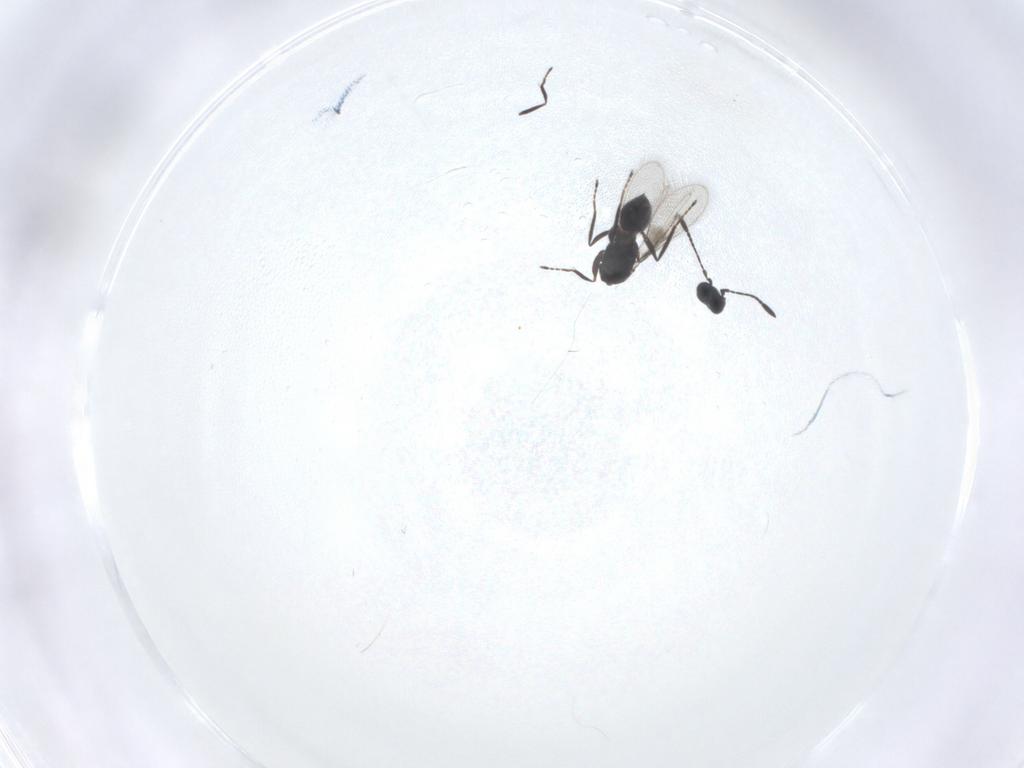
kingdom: Animalia
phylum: Arthropoda
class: Insecta
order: Hymenoptera
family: Mymaridae
